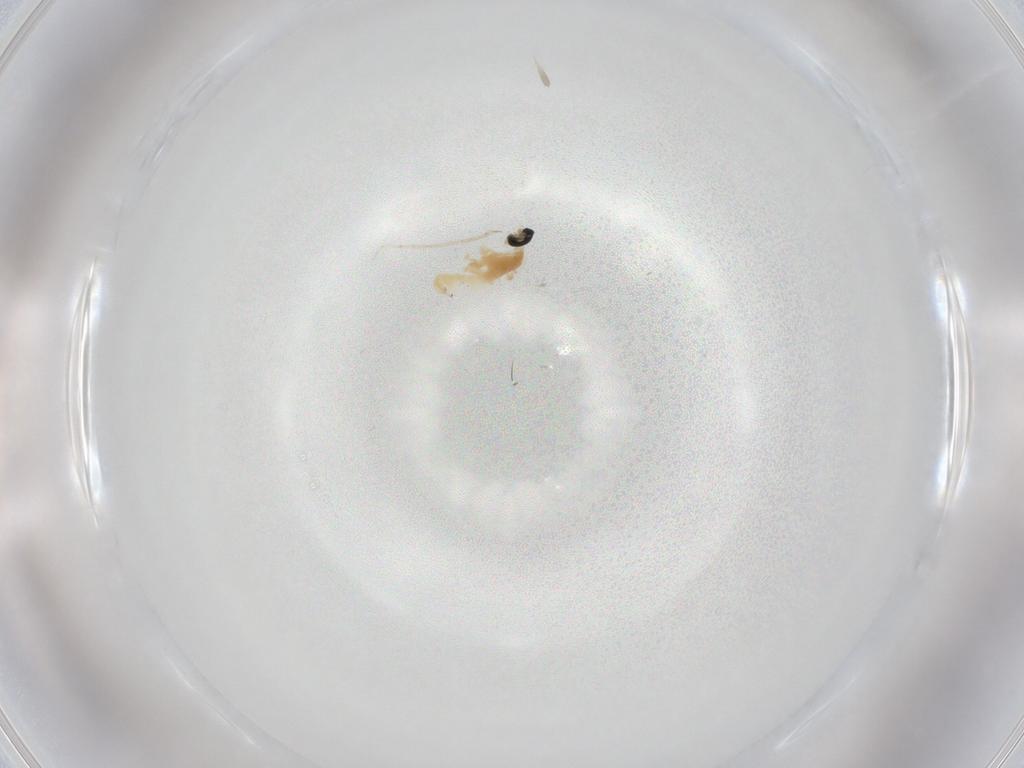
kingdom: Animalia
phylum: Arthropoda
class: Insecta
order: Diptera
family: Cecidomyiidae
